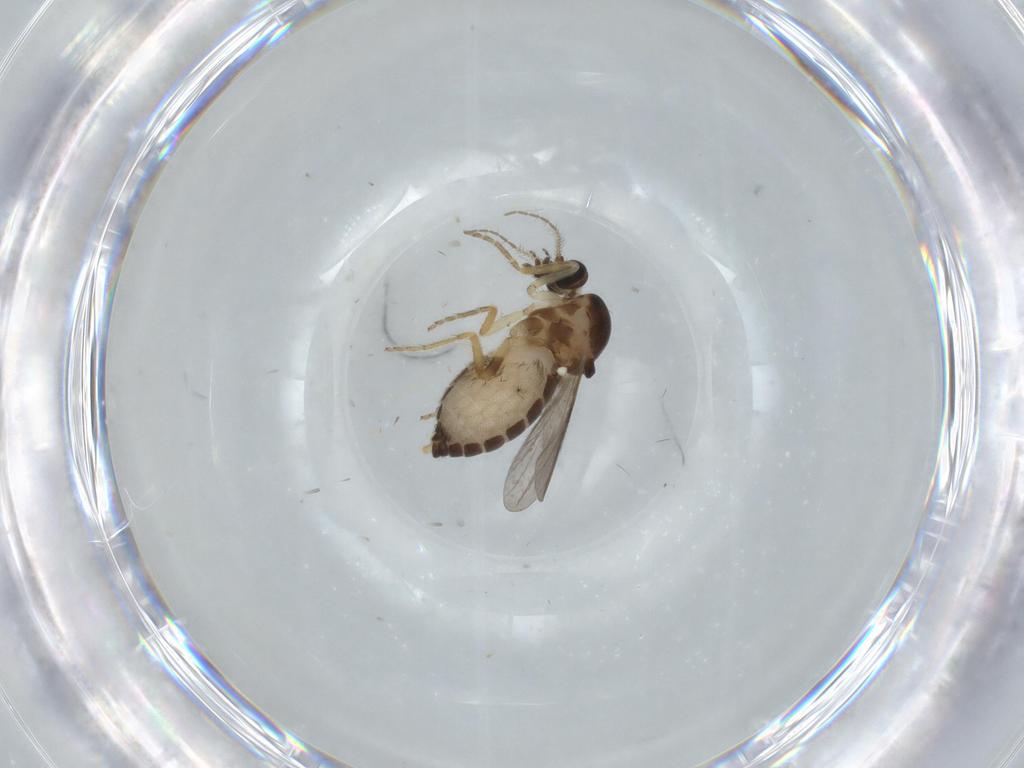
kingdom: Animalia
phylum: Arthropoda
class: Insecta
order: Diptera
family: Ceratopogonidae
